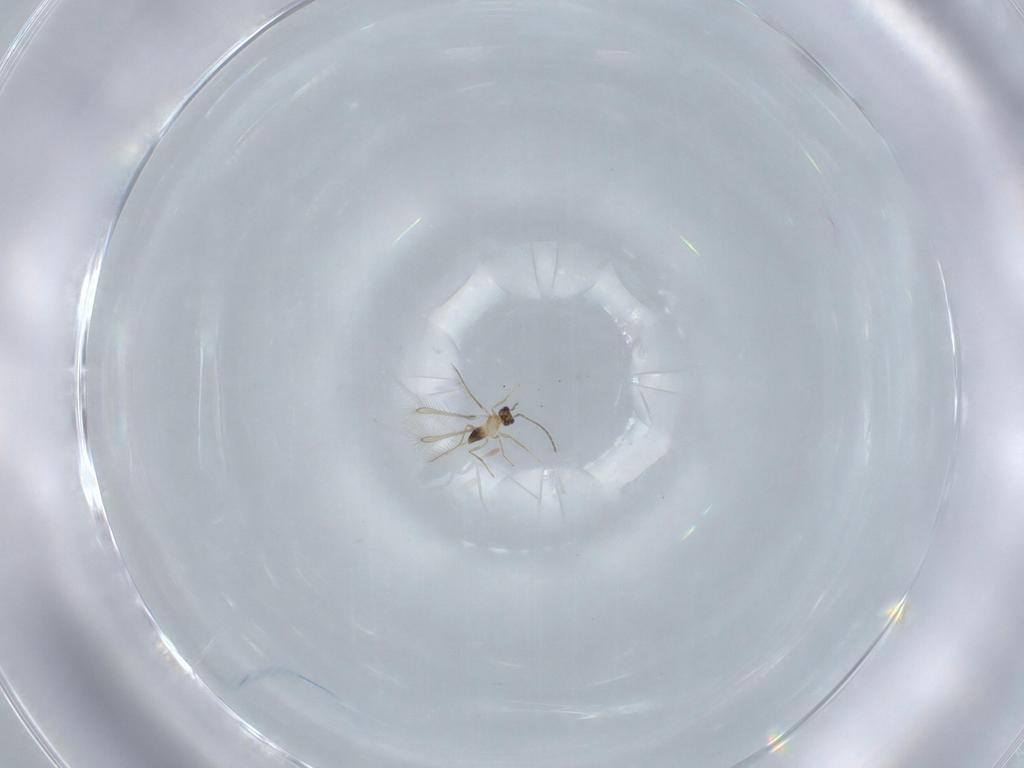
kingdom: Animalia
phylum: Arthropoda
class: Insecta
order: Hymenoptera
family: Mymaridae
